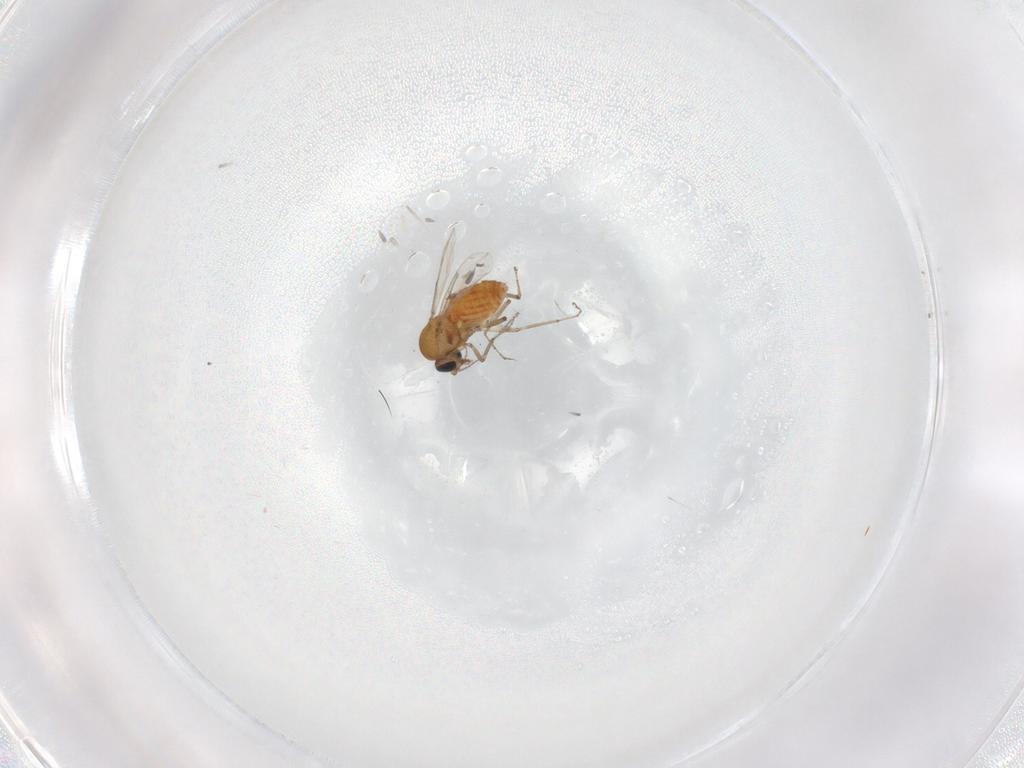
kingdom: Animalia
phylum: Arthropoda
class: Insecta
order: Diptera
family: Ceratopogonidae
